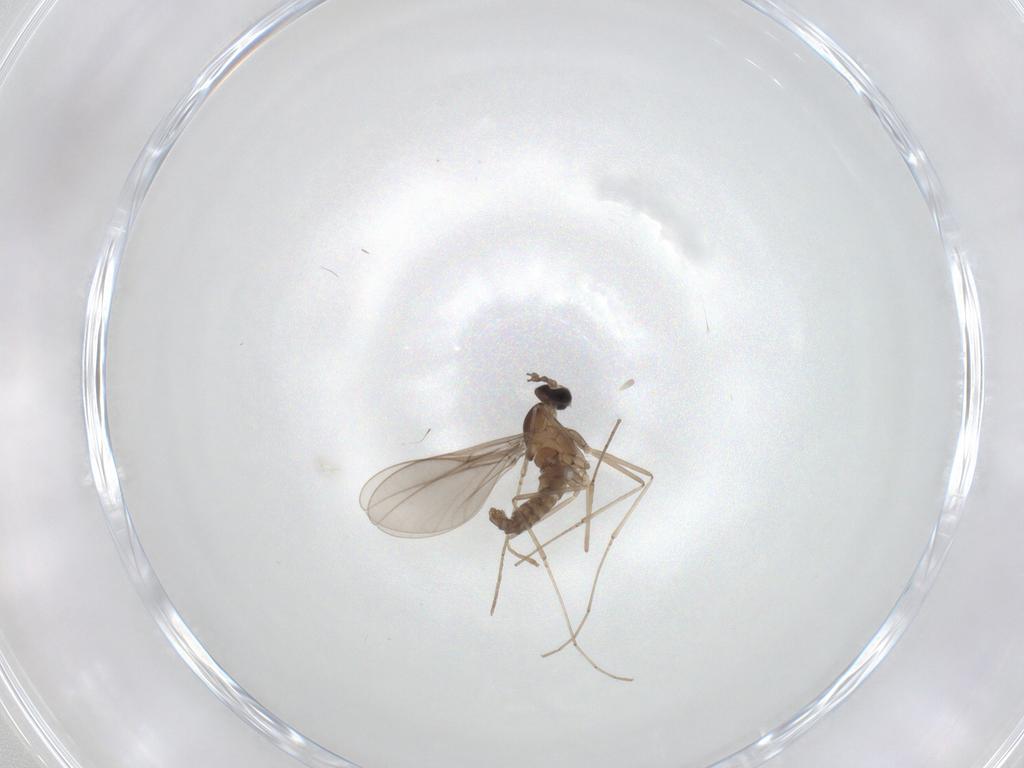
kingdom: Animalia
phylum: Arthropoda
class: Insecta
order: Diptera
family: Cecidomyiidae
